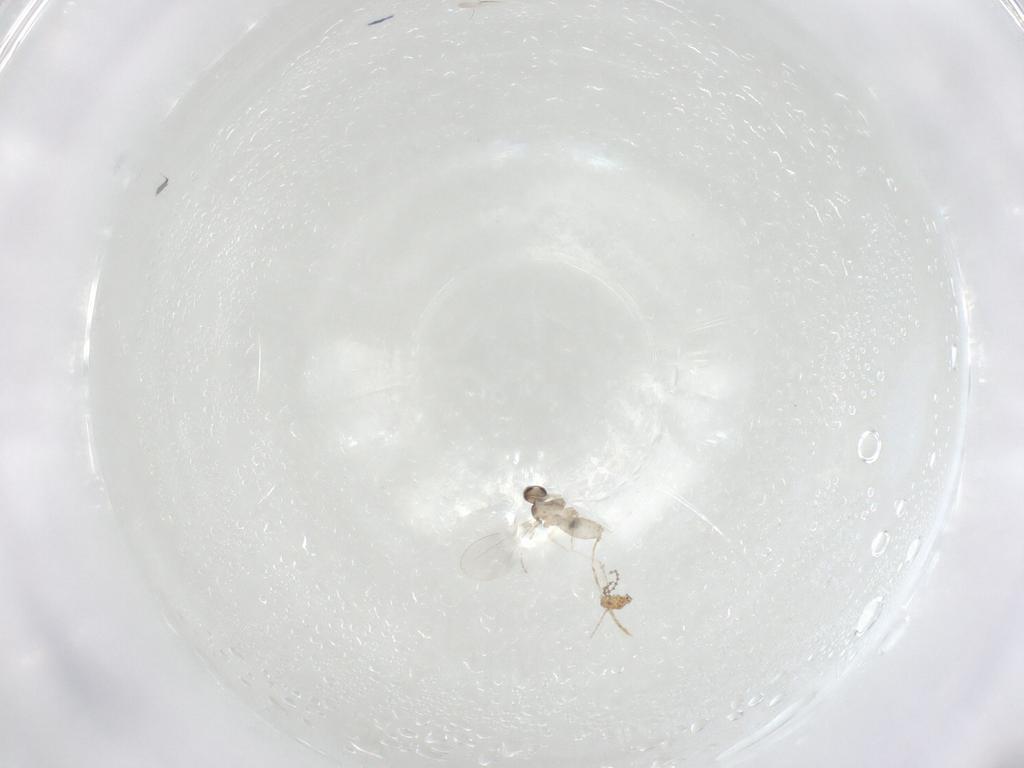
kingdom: Animalia
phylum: Arthropoda
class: Insecta
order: Diptera
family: Cecidomyiidae
